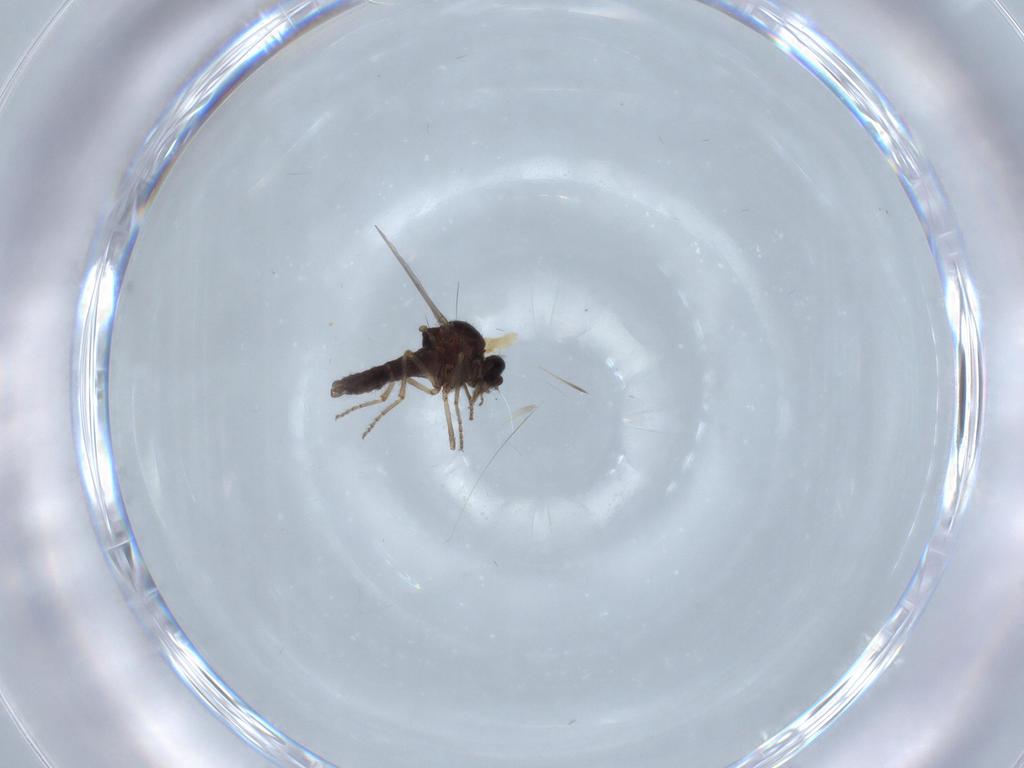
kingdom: Animalia
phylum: Arthropoda
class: Insecta
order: Diptera
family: Ceratopogonidae
